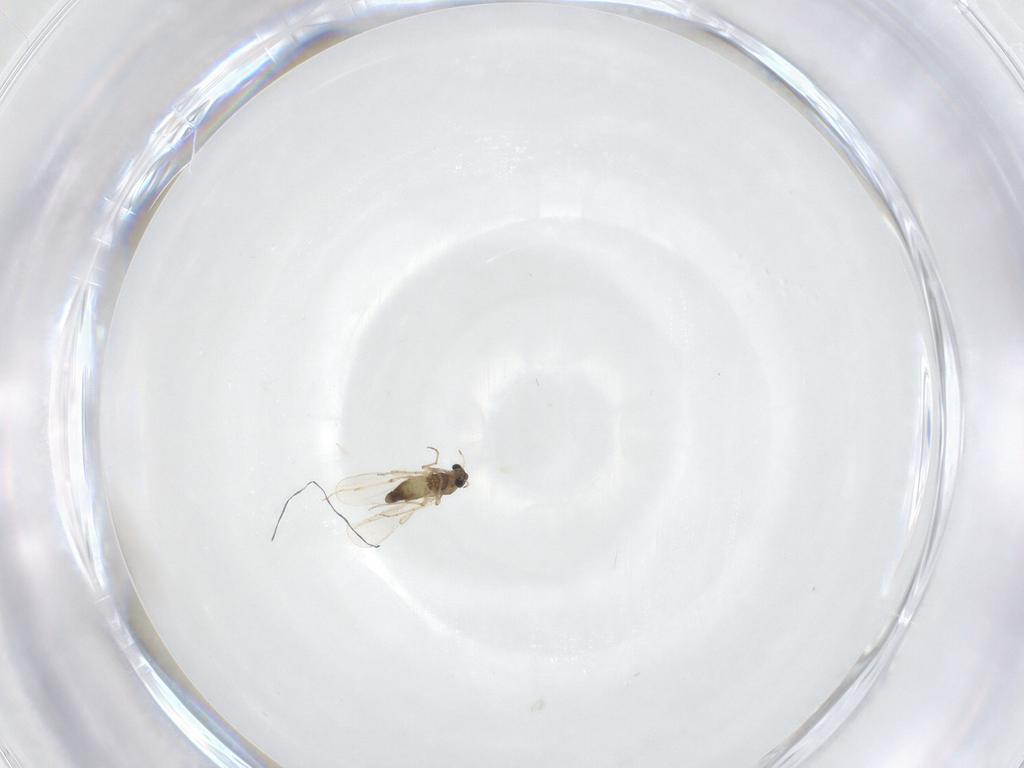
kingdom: Animalia
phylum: Arthropoda
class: Insecta
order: Diptera
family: Chironomidae
